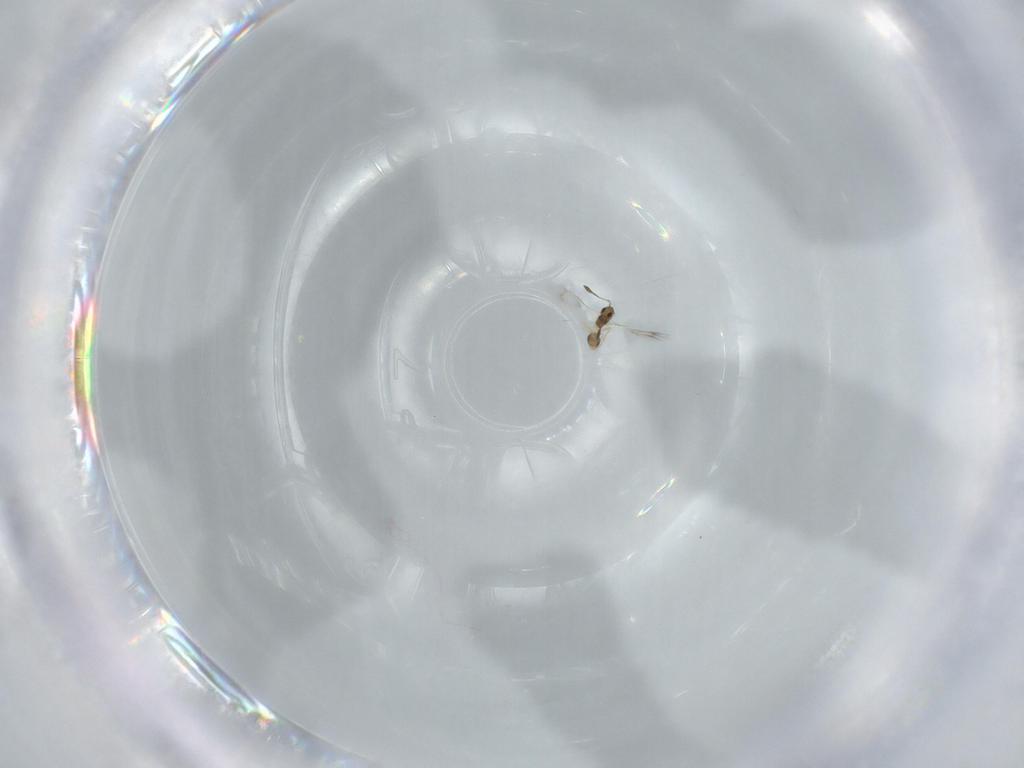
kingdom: Animalia
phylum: Arthropoda
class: Insecta
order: Hymenoptera
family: Mymarommatidae
